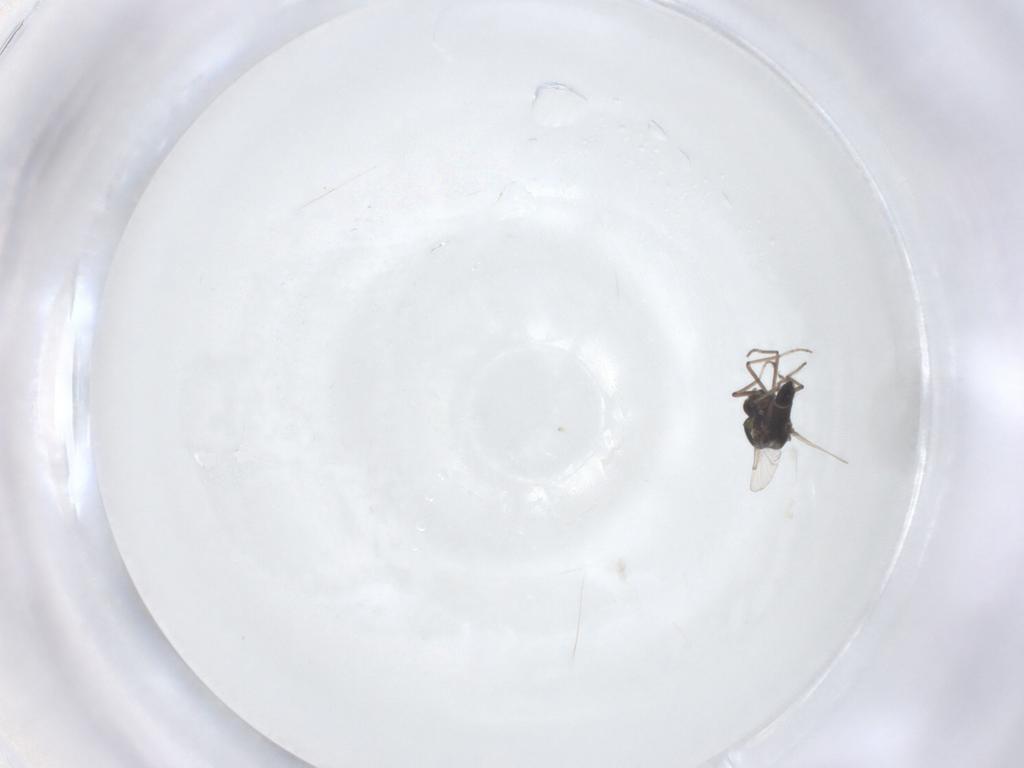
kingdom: Animalia
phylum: Arthropoda
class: Insecta
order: Diptera
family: Ceratopogonidae
